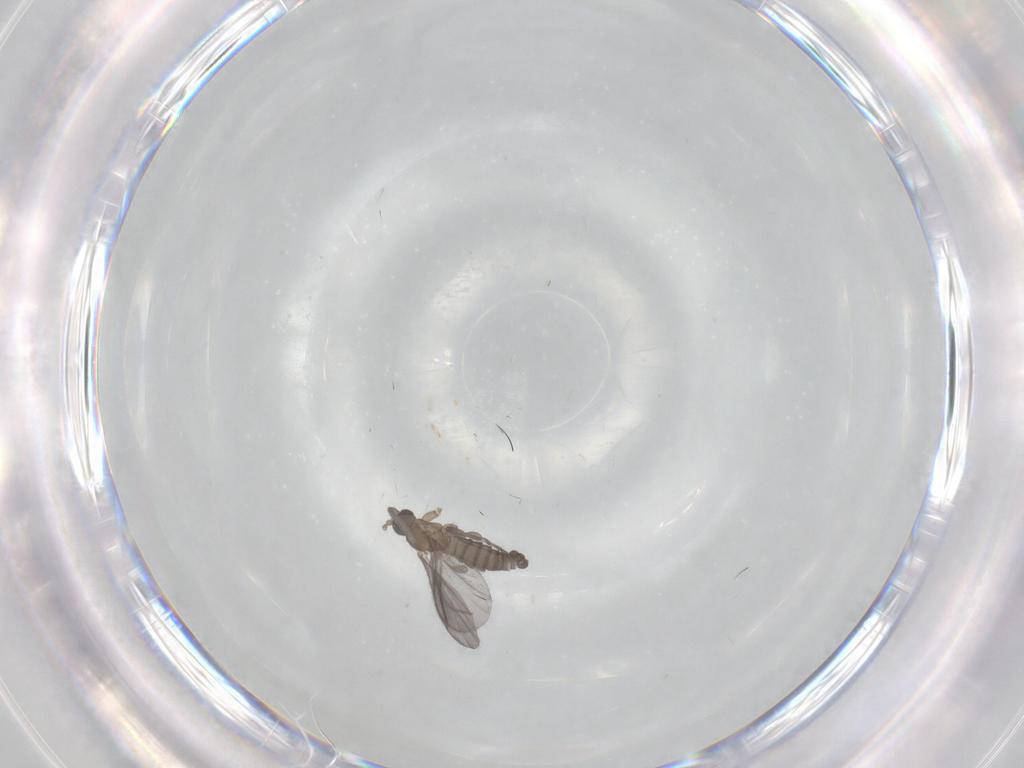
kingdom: Animalia
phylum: Arthropoda
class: Insecta
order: Diptera
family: Sciaridae
